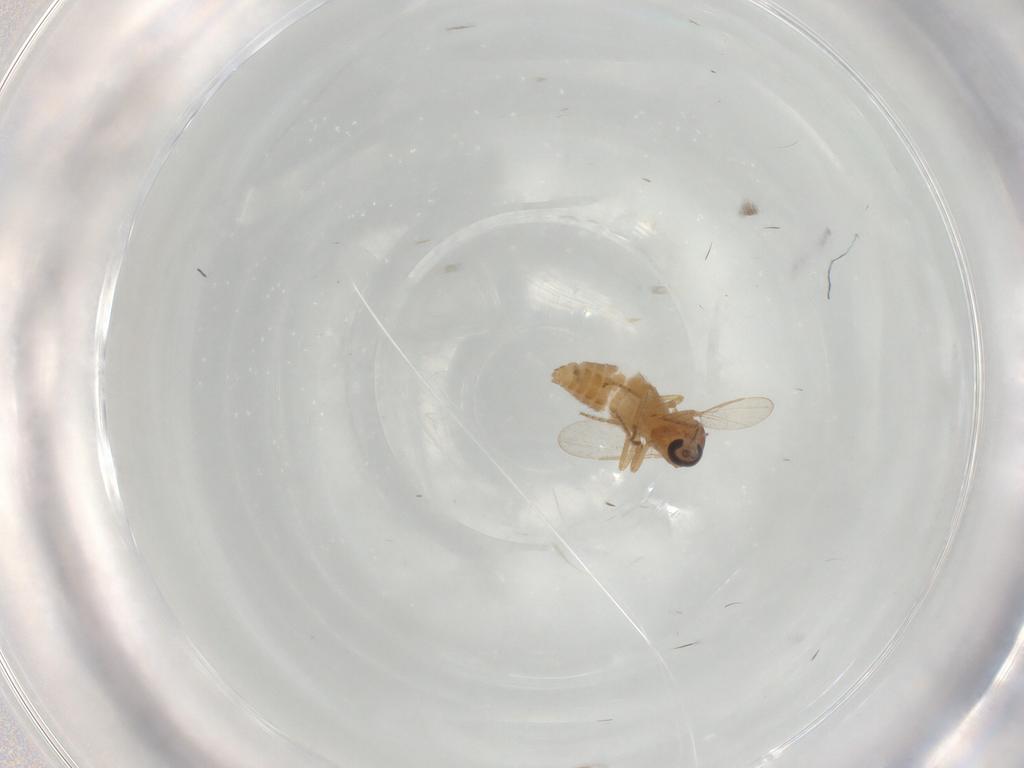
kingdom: Animalia
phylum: Arthropoda
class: Insecta
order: Diptera
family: Ceratopogonidae
